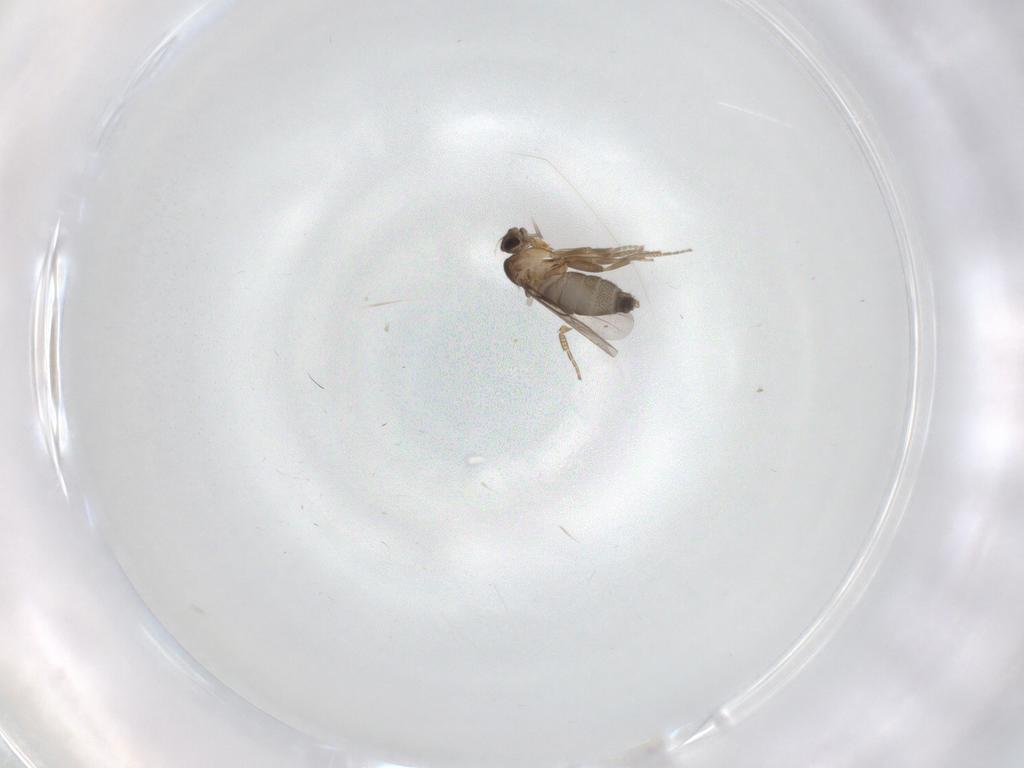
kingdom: Animalia
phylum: Arthropoda
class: Insecta
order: Diptera
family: Phoridae
